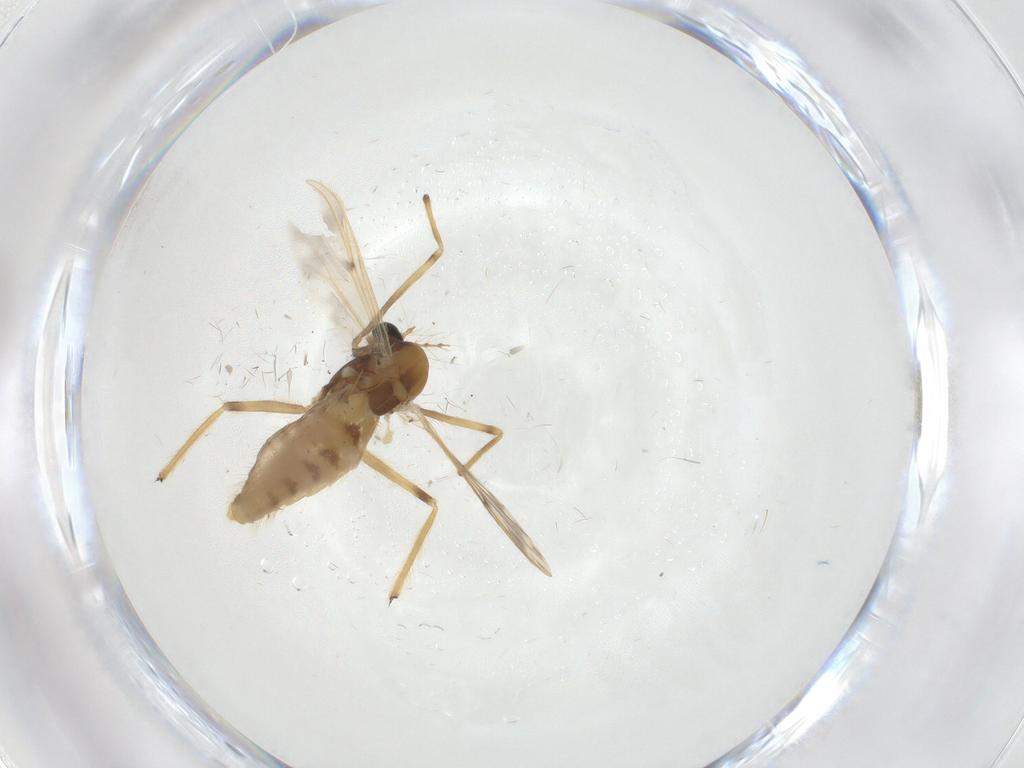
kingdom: Animalia
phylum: Arthropoda
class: Insecta
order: Diptera
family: Chironomidae
